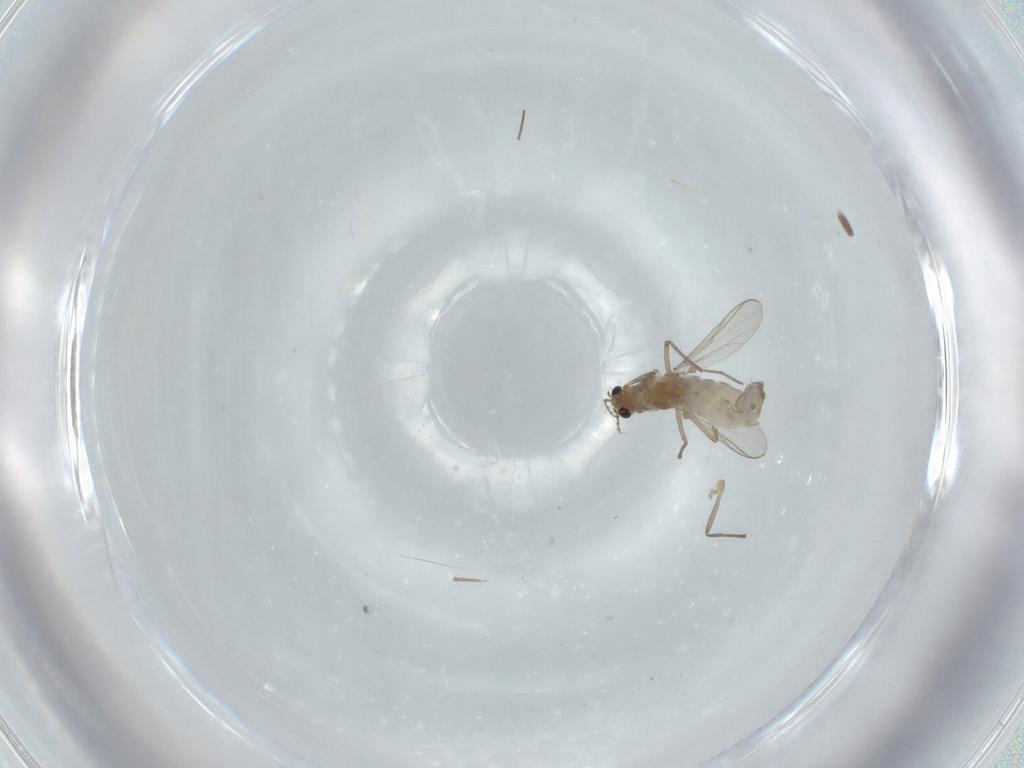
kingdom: Animalia
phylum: Arthropoda
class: Insecta
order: Diptera
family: Chironomidae
